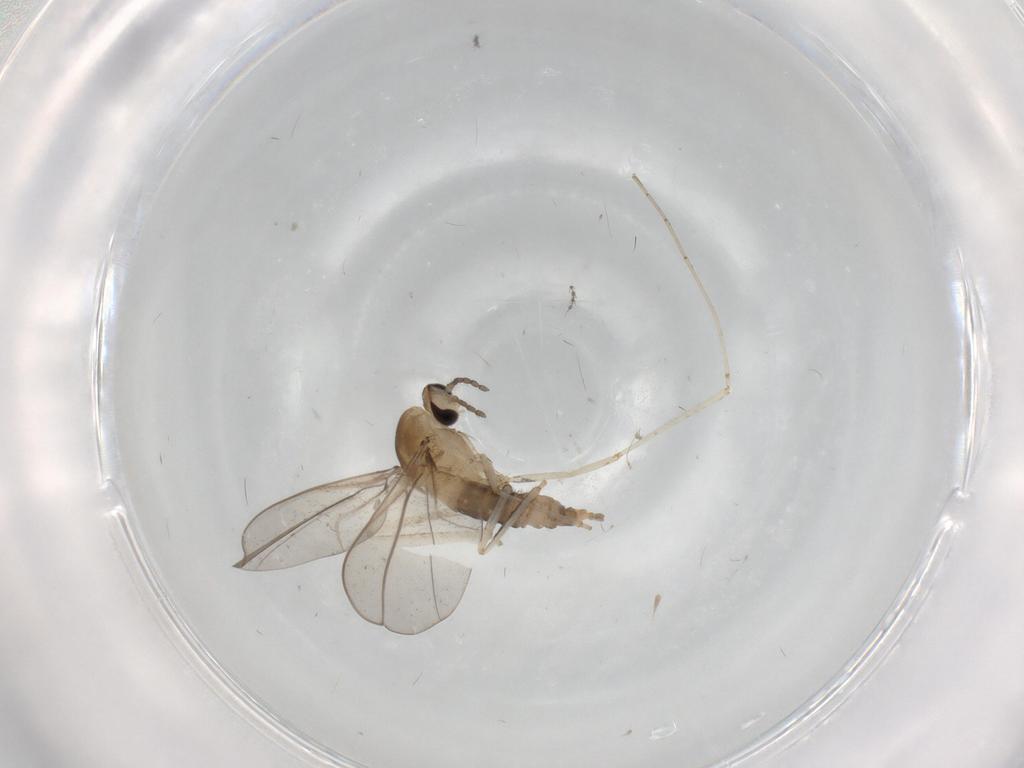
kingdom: Animalia
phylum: Arthropoda
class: Insecta
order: Diptera
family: Cecidomyiidae
